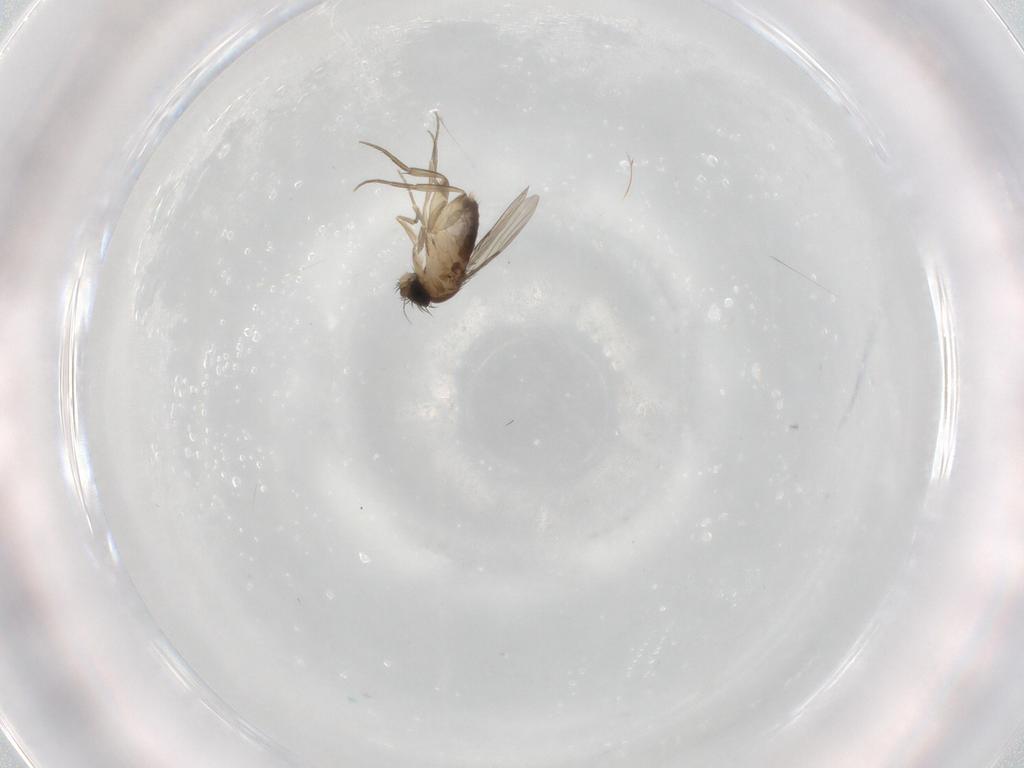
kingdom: Animalia
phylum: Arthropoda
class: Insecta
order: Diptera
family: Phoridae
